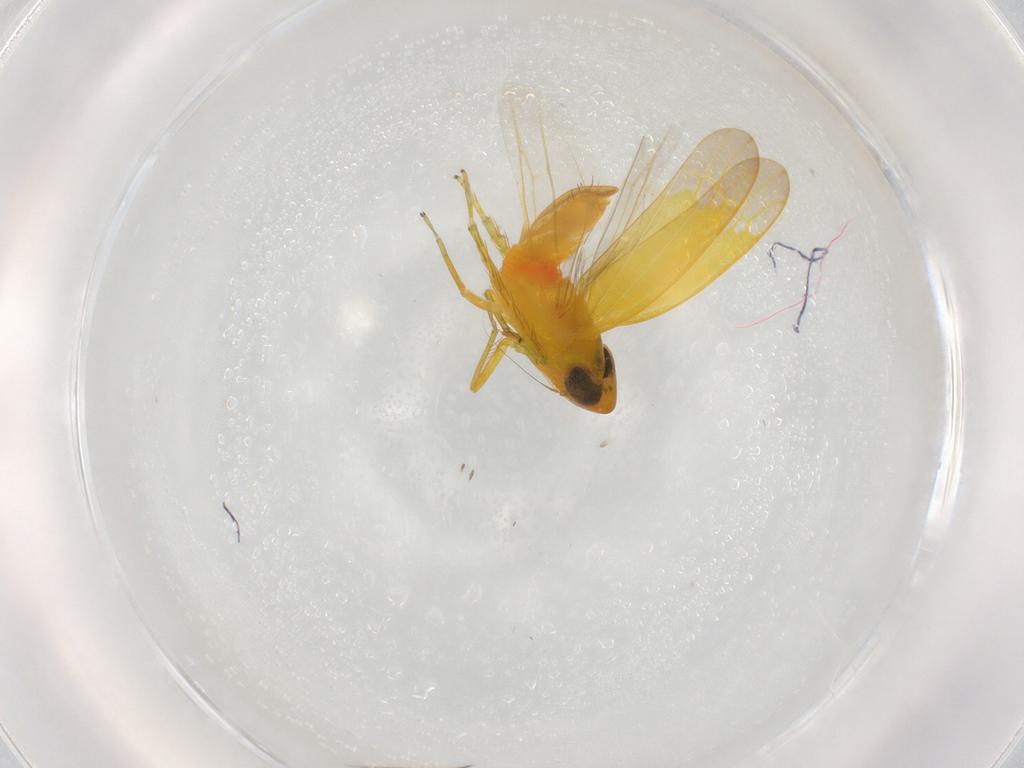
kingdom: Animalia
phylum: Arthropoda
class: Insecta
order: Hemiptera
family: Cicadellidae
